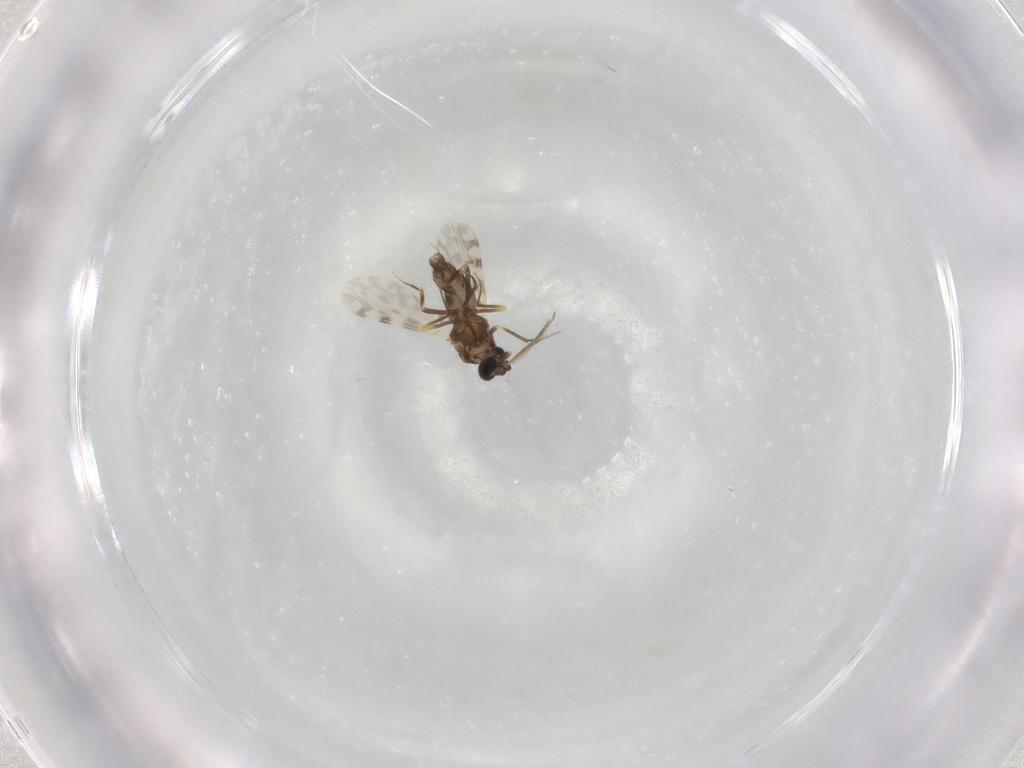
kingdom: Animalia
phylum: Arthropoda
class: Insecta
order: Diptera
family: Ceratopogonidae
